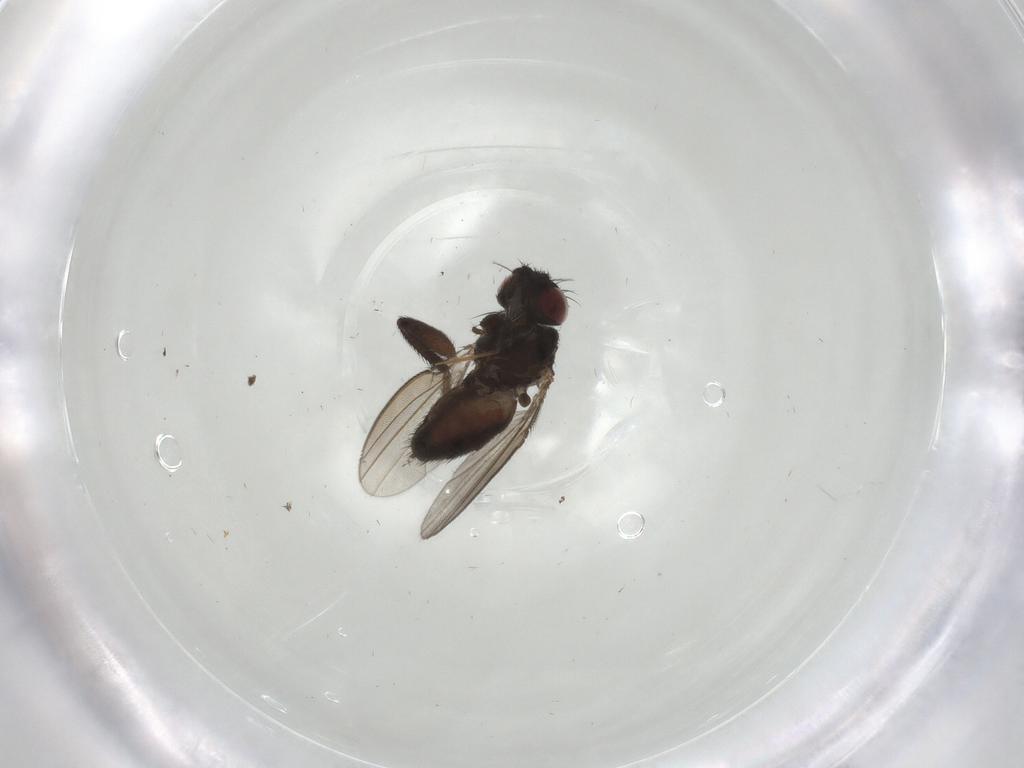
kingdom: Animalia
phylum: Arthropoda
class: Insecta
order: Diptera
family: Milichiidae
